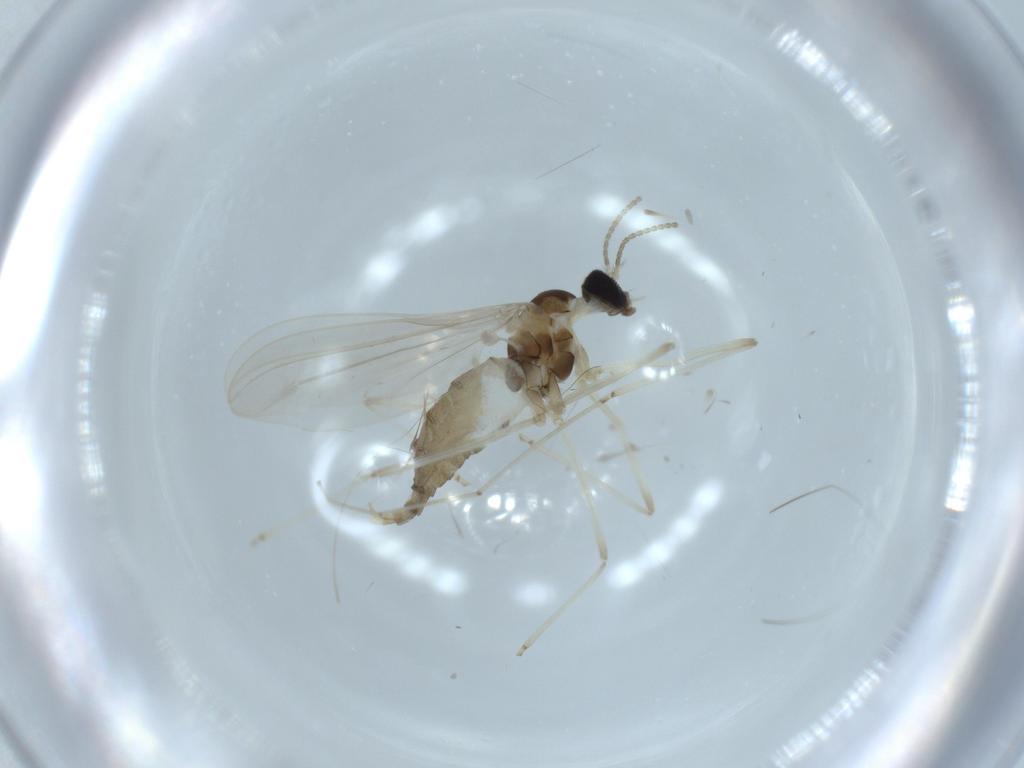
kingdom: Animalia
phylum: Arthropoda
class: Insecta
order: Diptera
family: Cecidomyiidae
